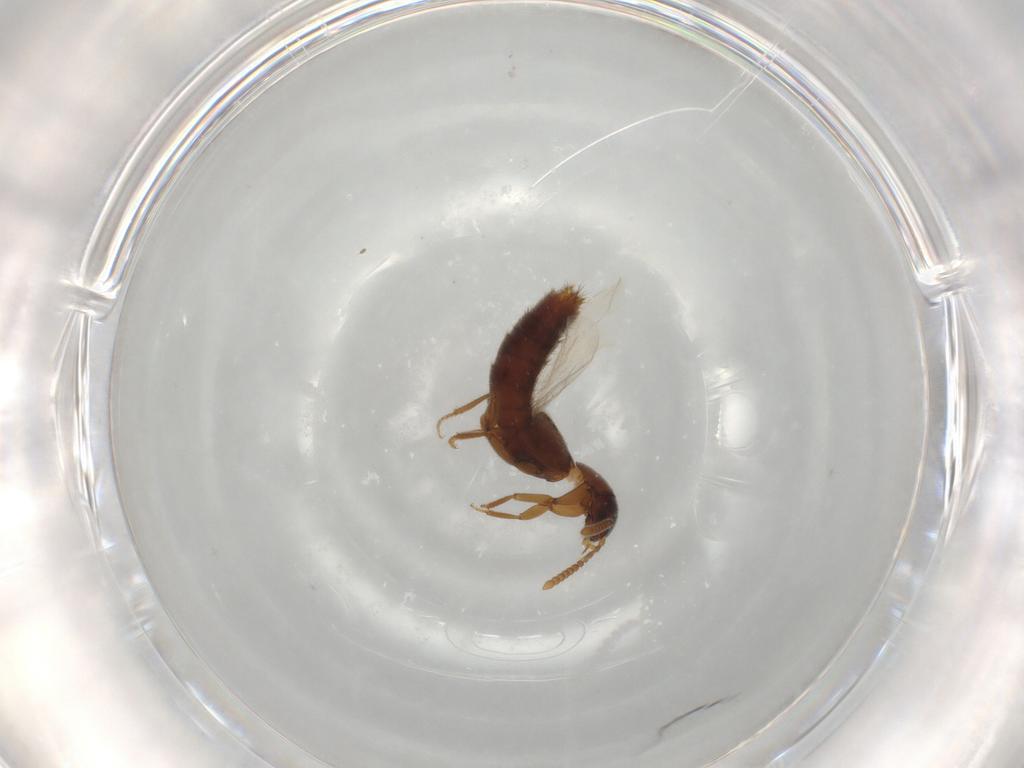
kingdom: Animalia
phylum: Arthropoda
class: Insecta
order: Coleoptera
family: Staphylinidae
